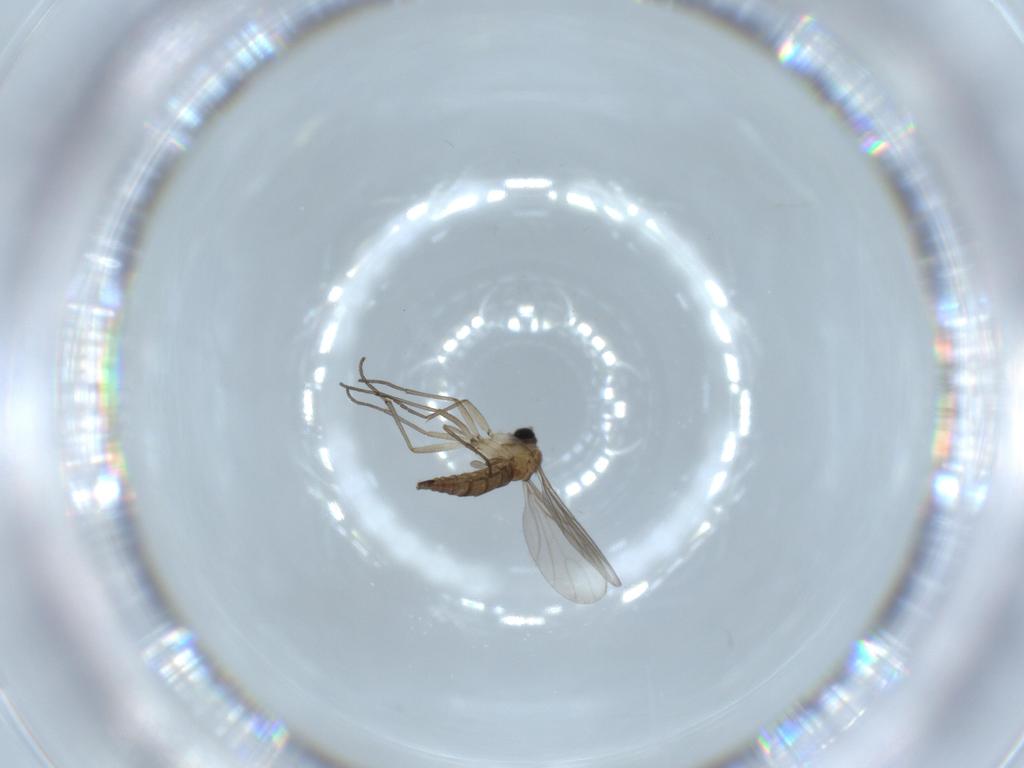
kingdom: Animalia
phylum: Arthropoda
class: Insecta
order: Diptera
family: Sciaridae
